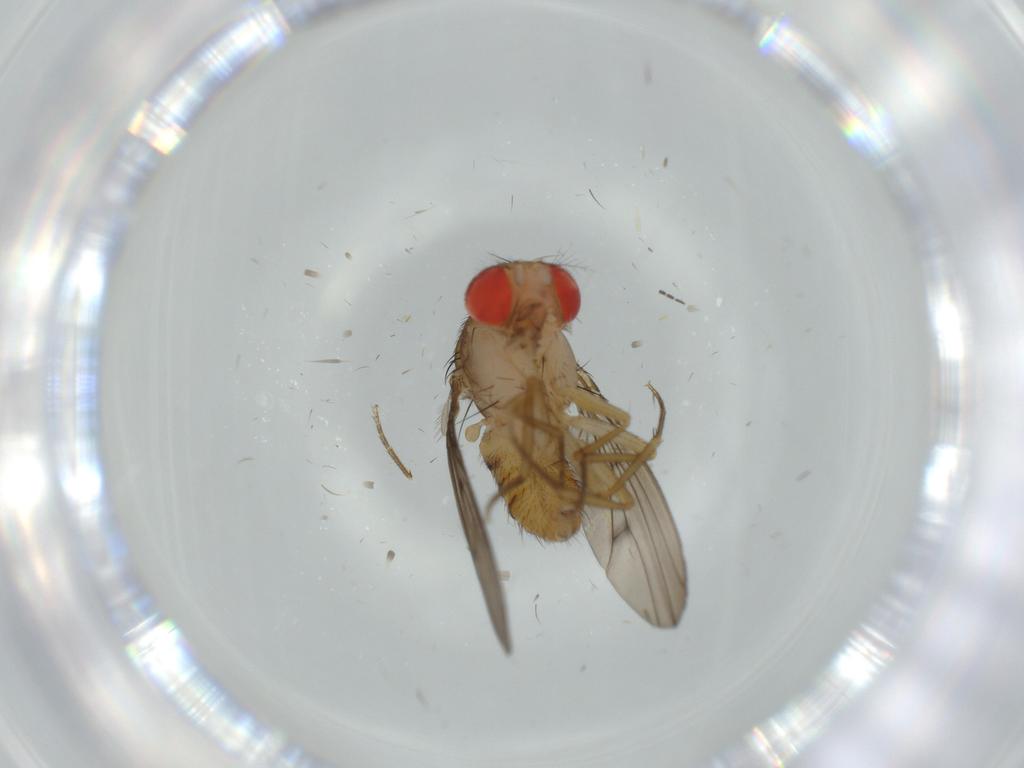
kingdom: Animalia
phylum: Arthropoda
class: Insecta
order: Diptera
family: Drosophilidae
